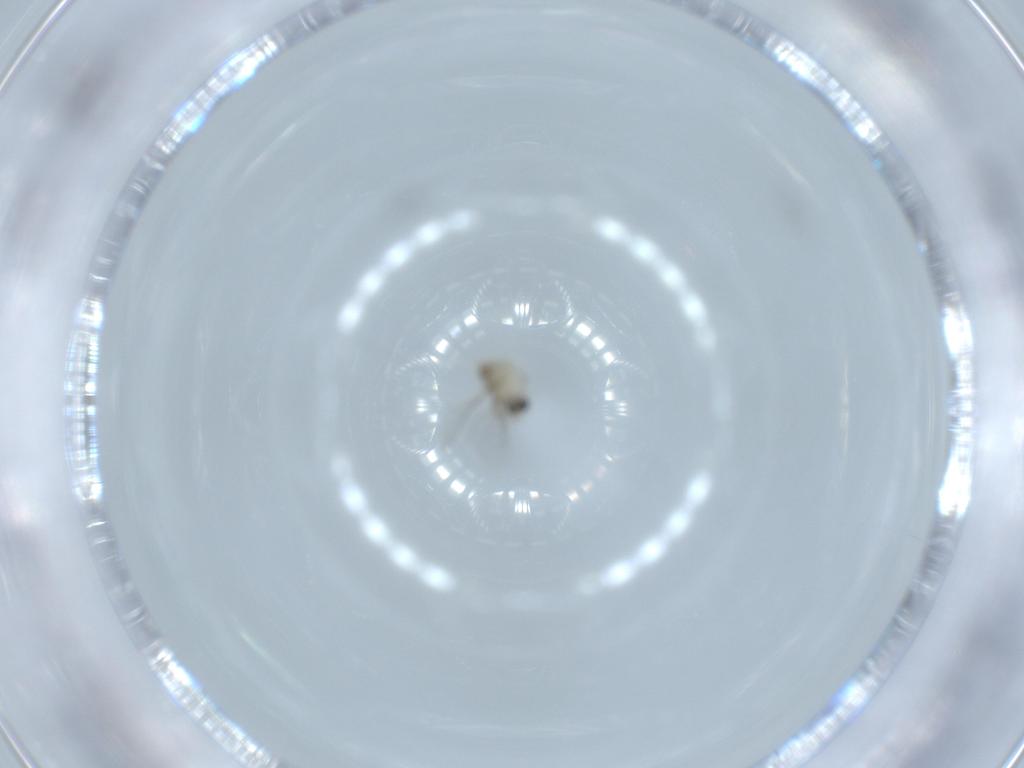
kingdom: Animalia
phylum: Arthropoda
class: Insecta
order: Diptera
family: Cecidomyiidae
